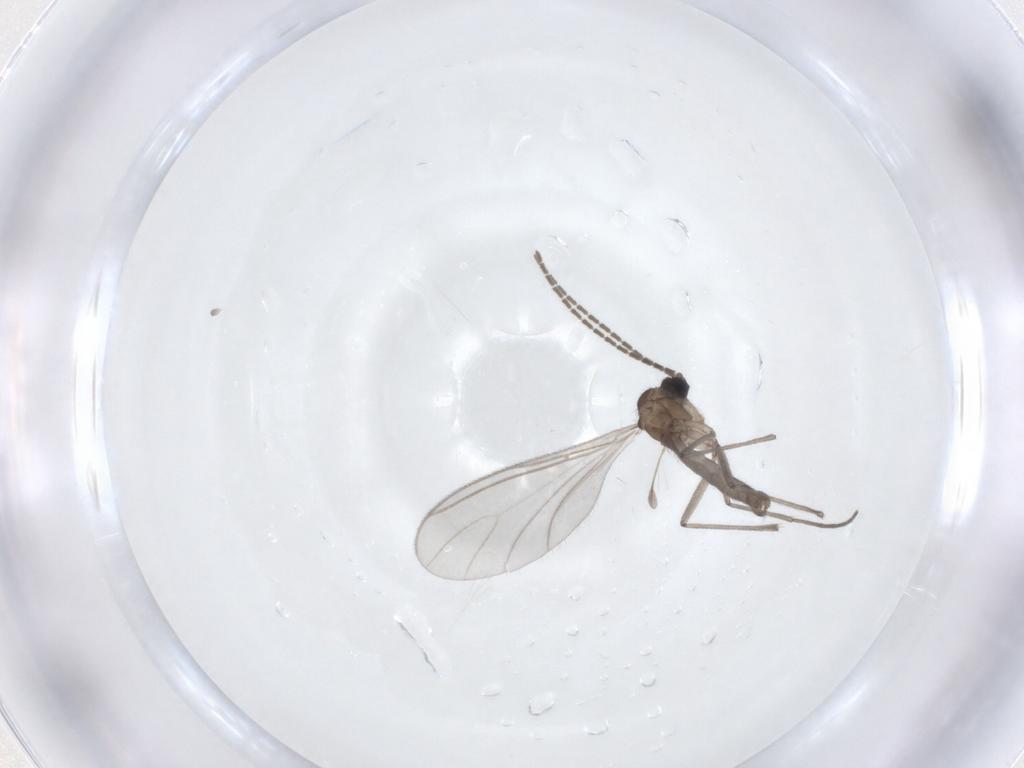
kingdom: Animalia
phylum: Arthropoda
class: Insecta
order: Diptera
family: Sciaridae
